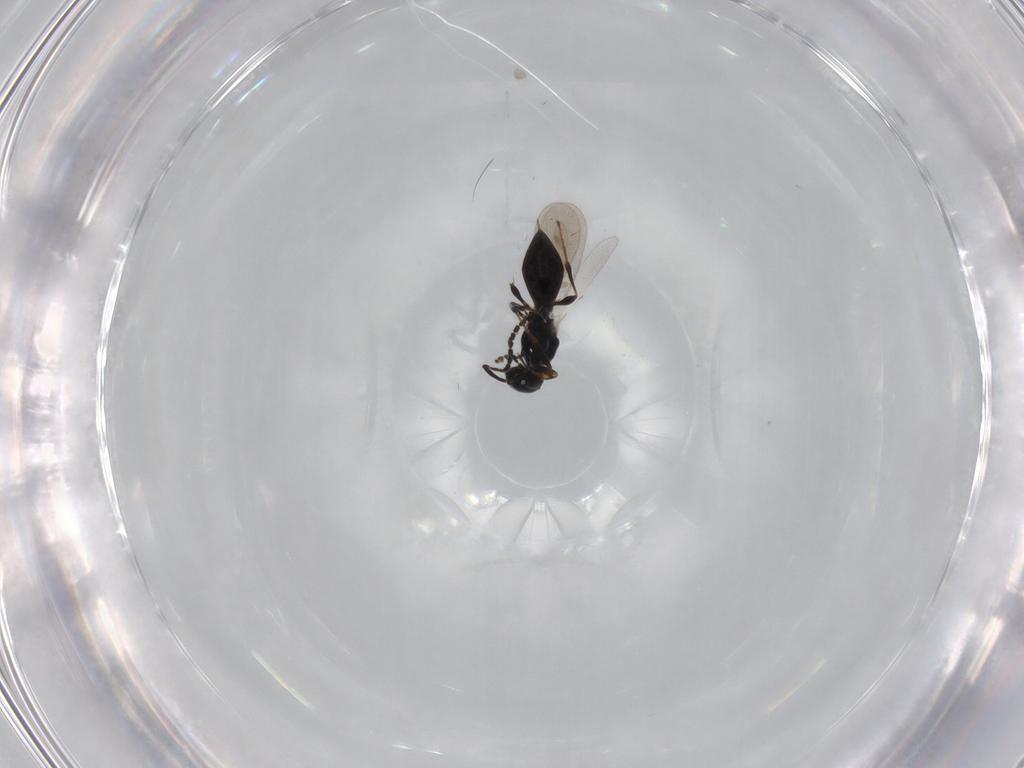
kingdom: Animalia
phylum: Arthropoda
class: Insecta
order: Hymenoptera
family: Platygastridae
